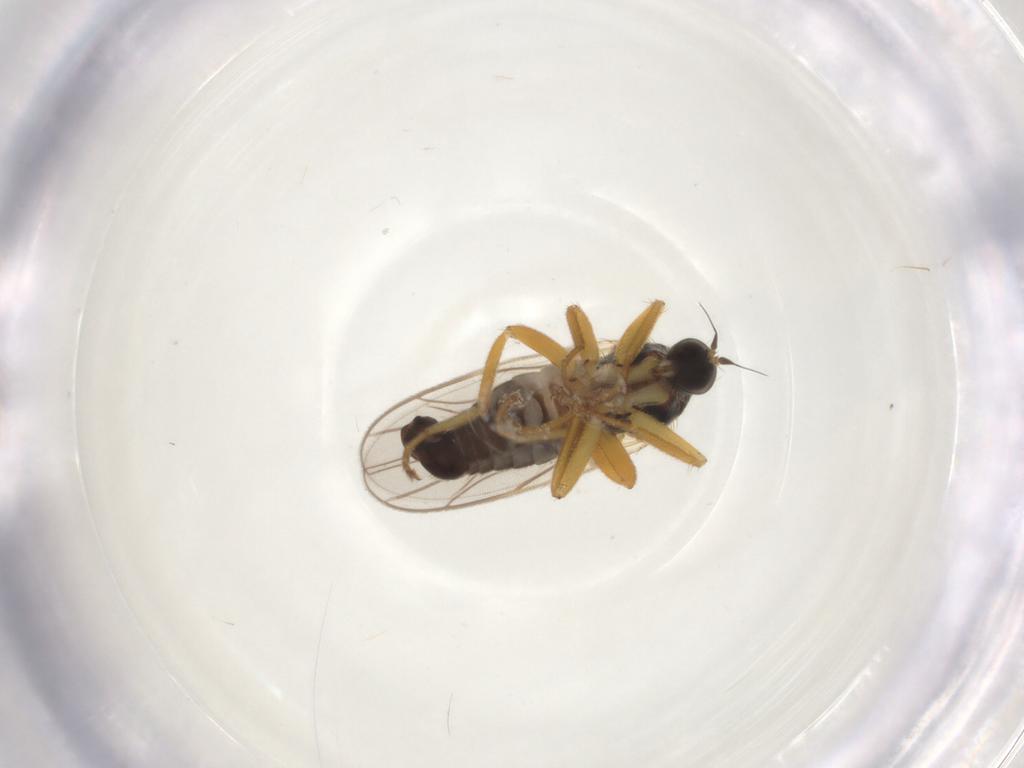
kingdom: Animalia
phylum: Arthropoda
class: Insecta
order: Diptera
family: Hybotidae
